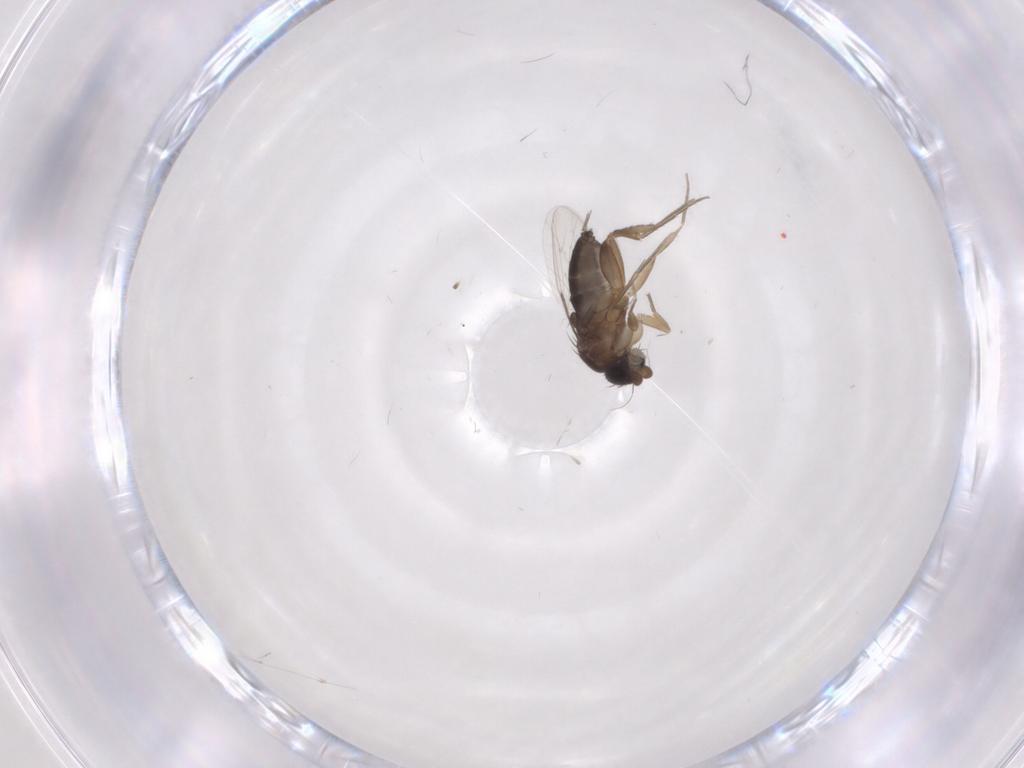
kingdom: Animalia
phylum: Arthropoda
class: Insecta
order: Diptera
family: Phoridae
